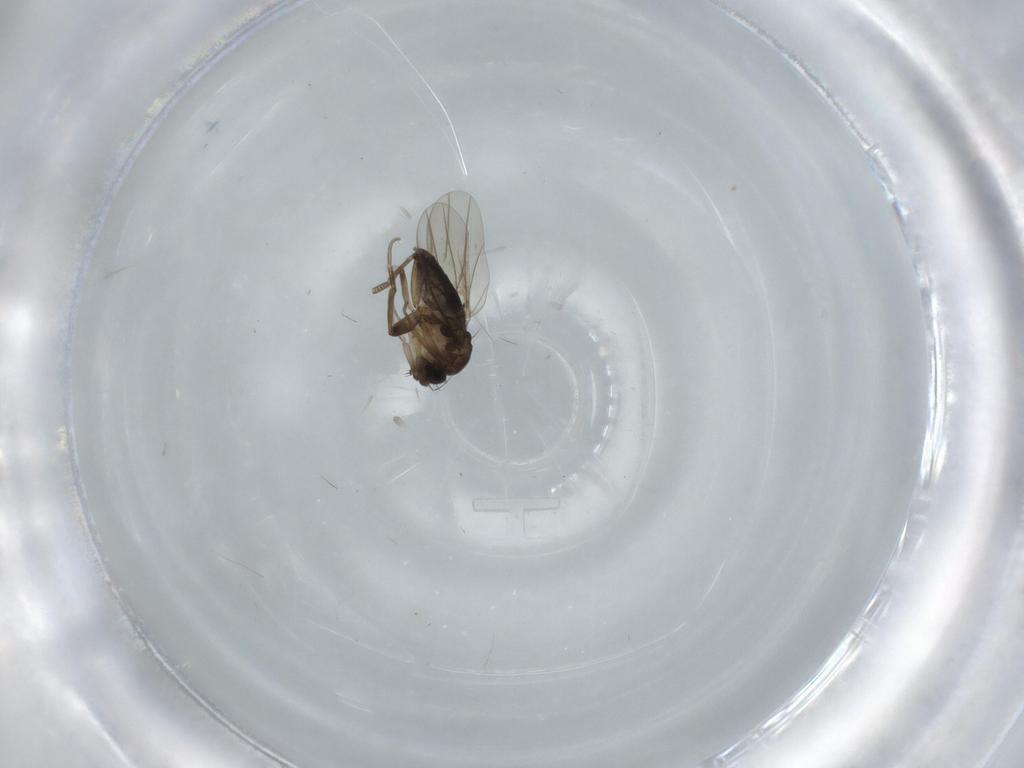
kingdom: Animalia
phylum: Arthropoda
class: Insecta
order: Diptera
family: Phoridae
